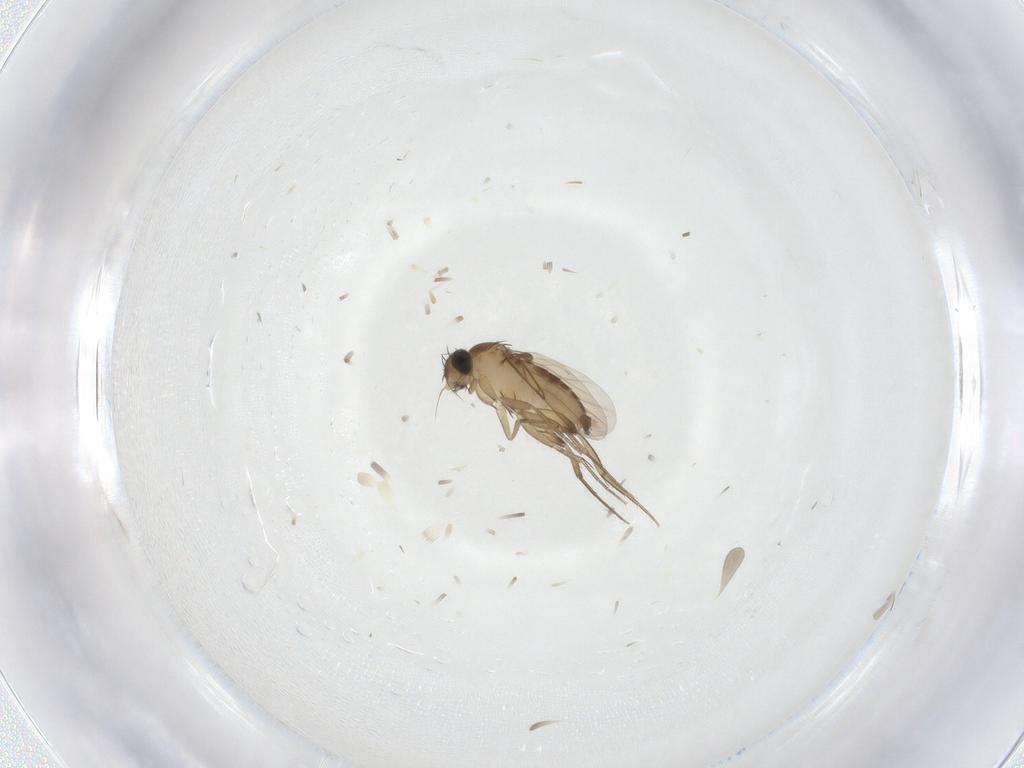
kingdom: Animalia
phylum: Arthropoda
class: Insecta
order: Diptera
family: Phoridae
